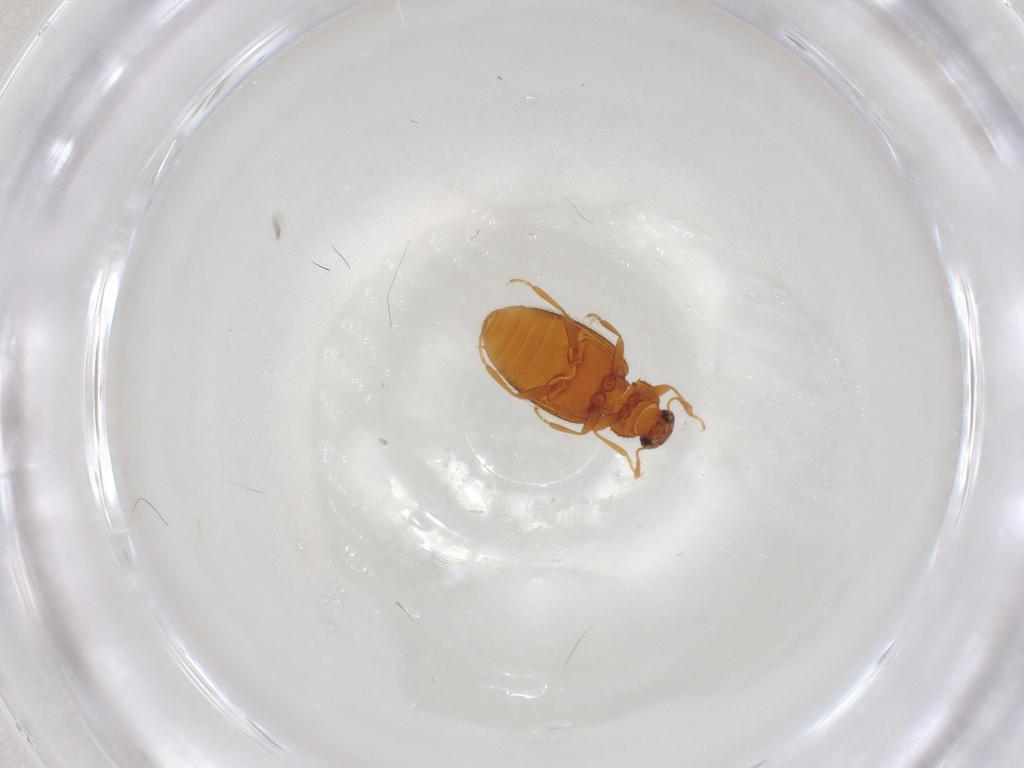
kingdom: Animalia
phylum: Arthropoda
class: Insecta
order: Coleoptera
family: Latridiidae
